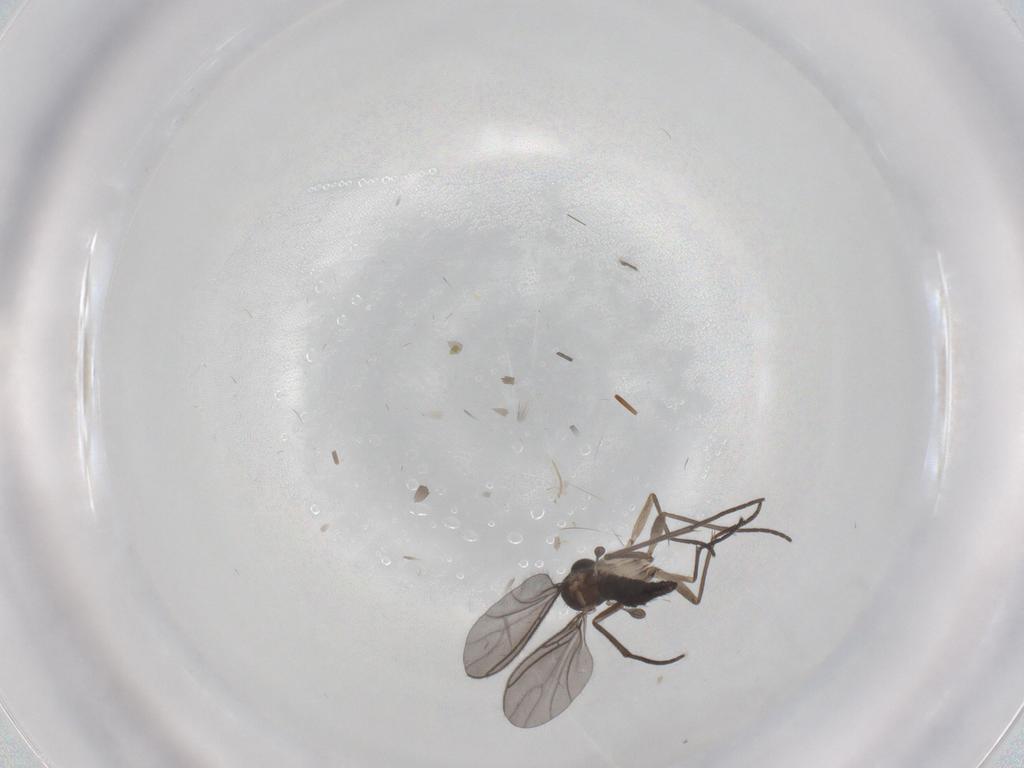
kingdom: Animalia
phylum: Arthropoda
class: Insecta
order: Diptera
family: Sciaridae
